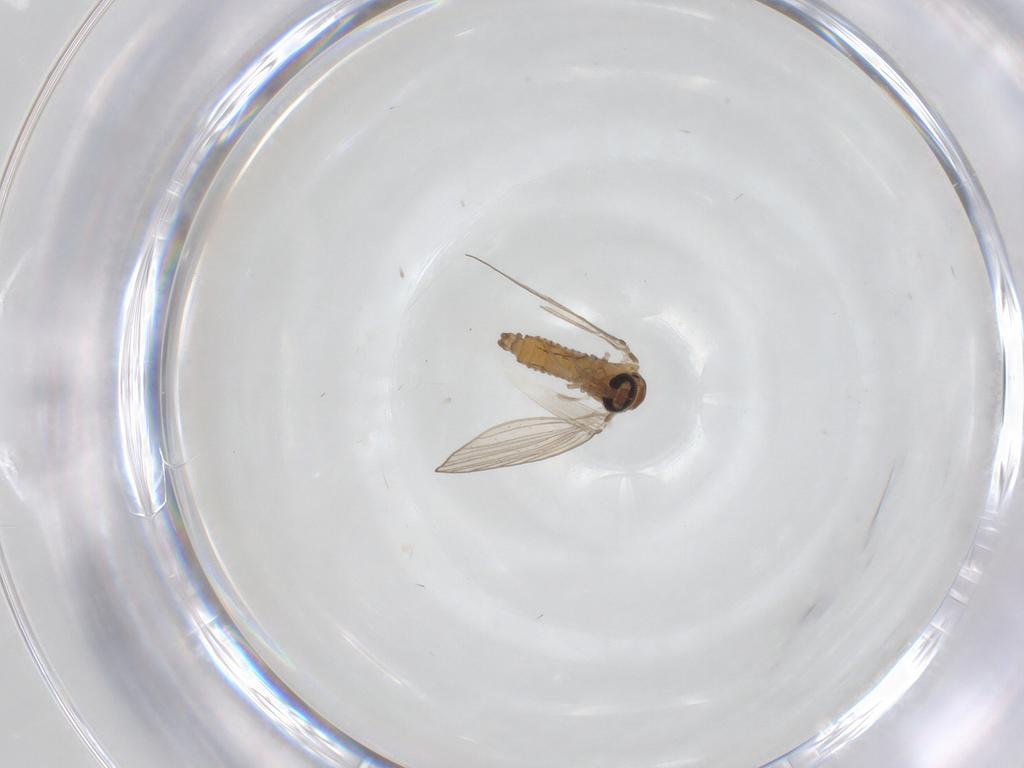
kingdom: Animalia
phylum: Arthropoda
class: Insecta
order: Diptera
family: Psychodidae
